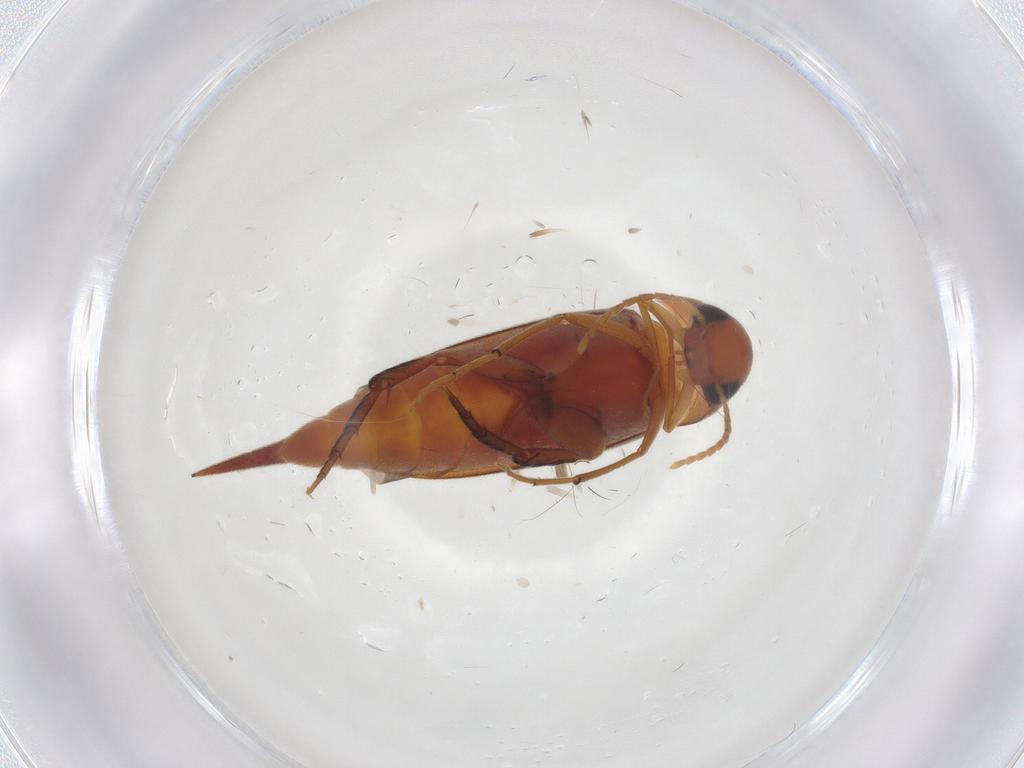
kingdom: Animalia
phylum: Arthropoda
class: Insecta
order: Coleoptera
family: Mordellidae
